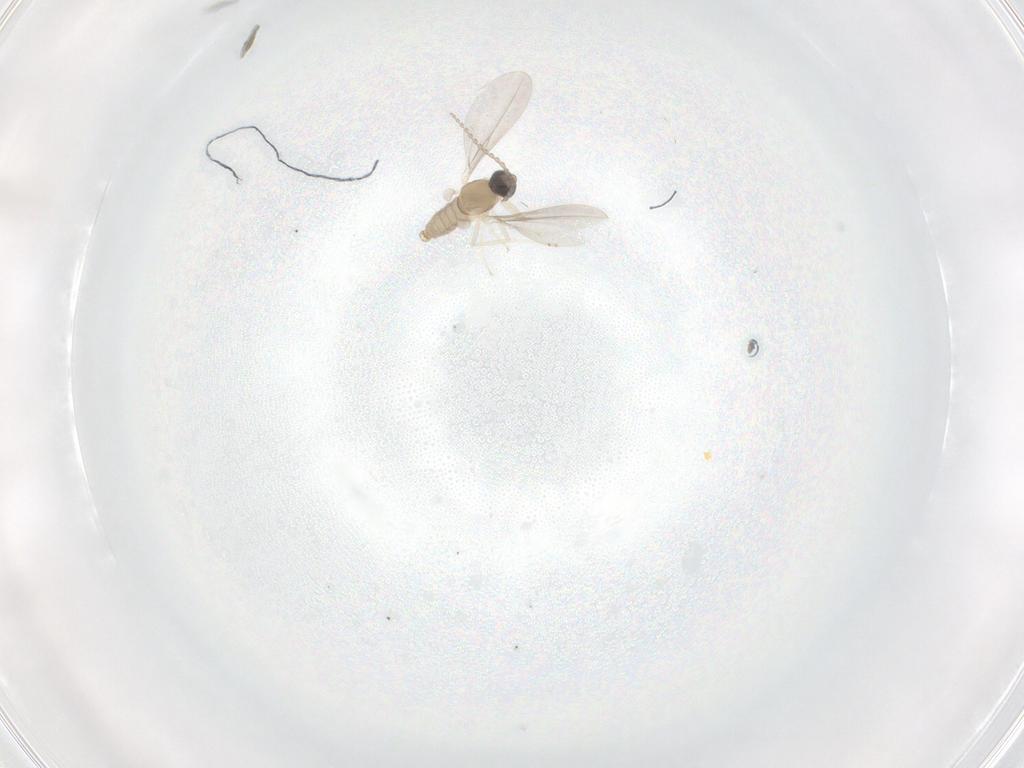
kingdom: Animalia
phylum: Arthropoda
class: Insecta
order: Diptera
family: Cecidomyiidae
